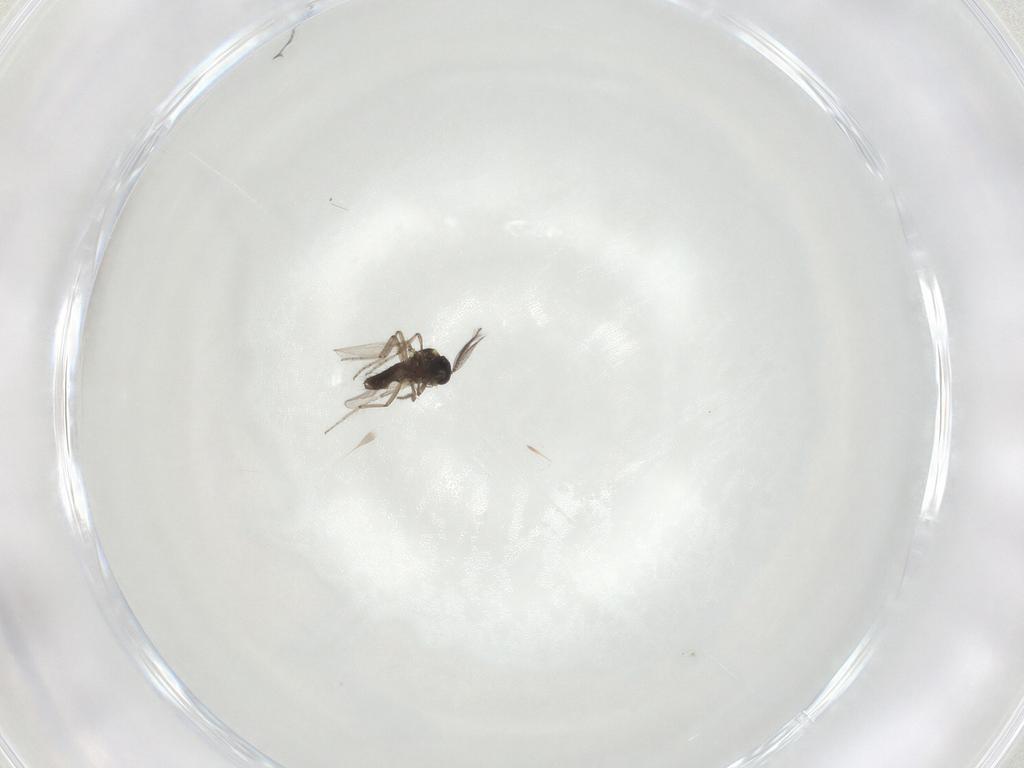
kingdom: Animalia
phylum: Arthropoda
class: Insecta
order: Diptera
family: Ceratopogonidae
